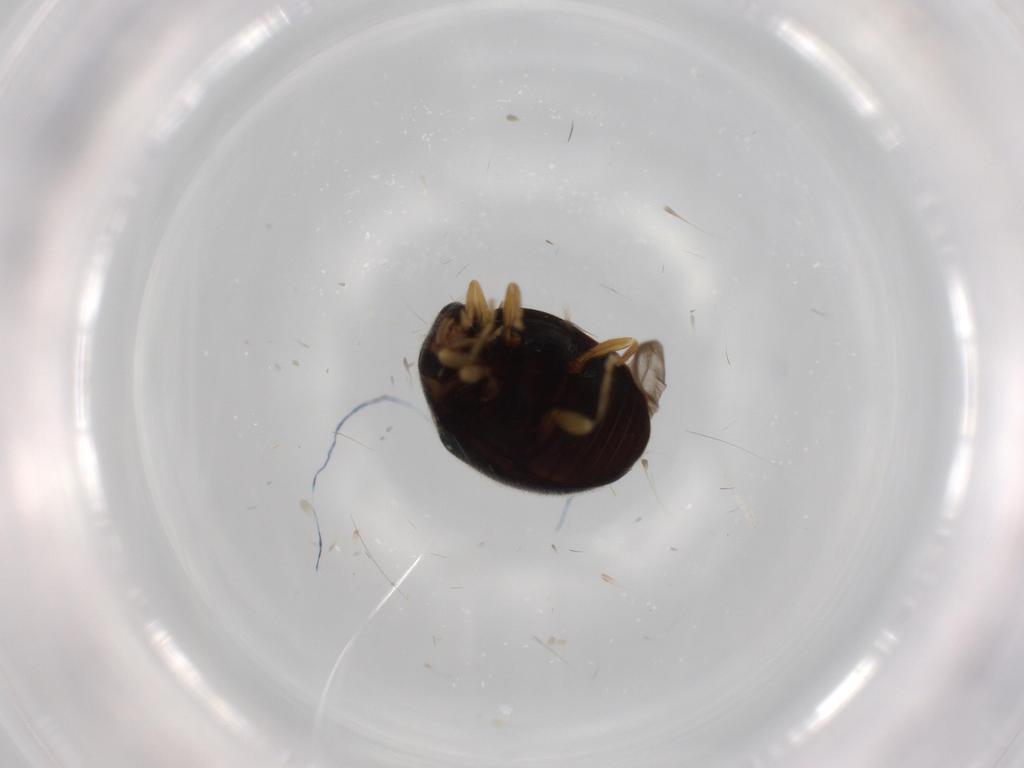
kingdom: Animalia
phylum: Arthropoda
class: Insecta
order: Coleoptera
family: Coccinellidae
